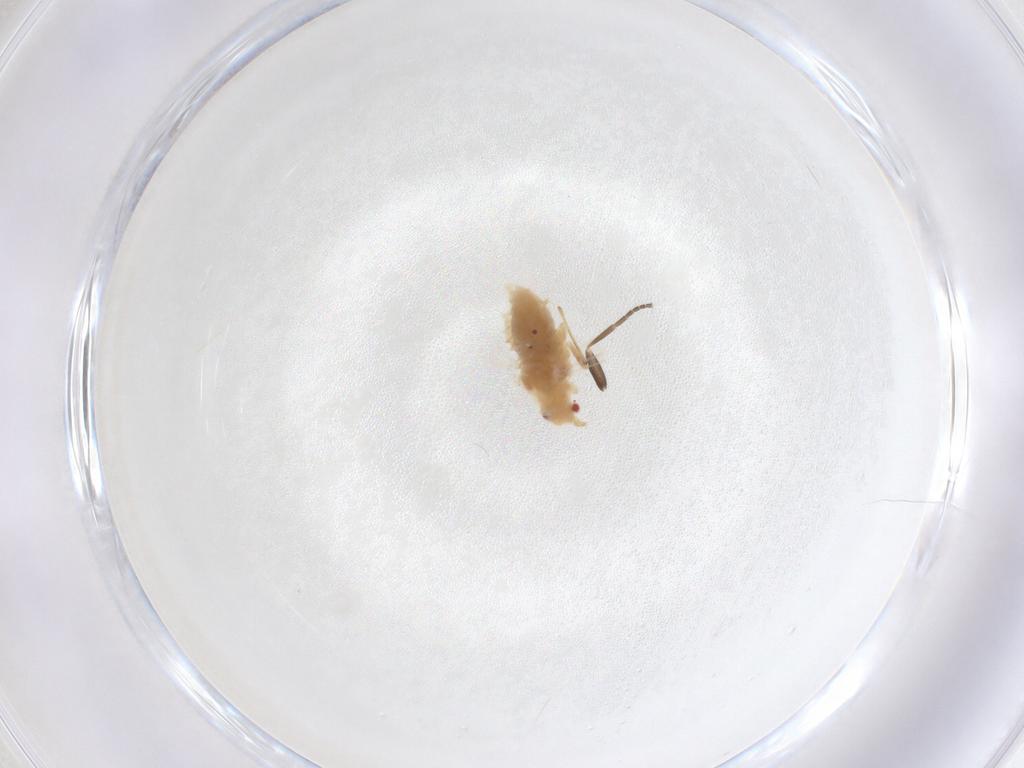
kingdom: Animalia
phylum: Arthropoda
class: Insecta
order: Hemiptera
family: Aphididae
